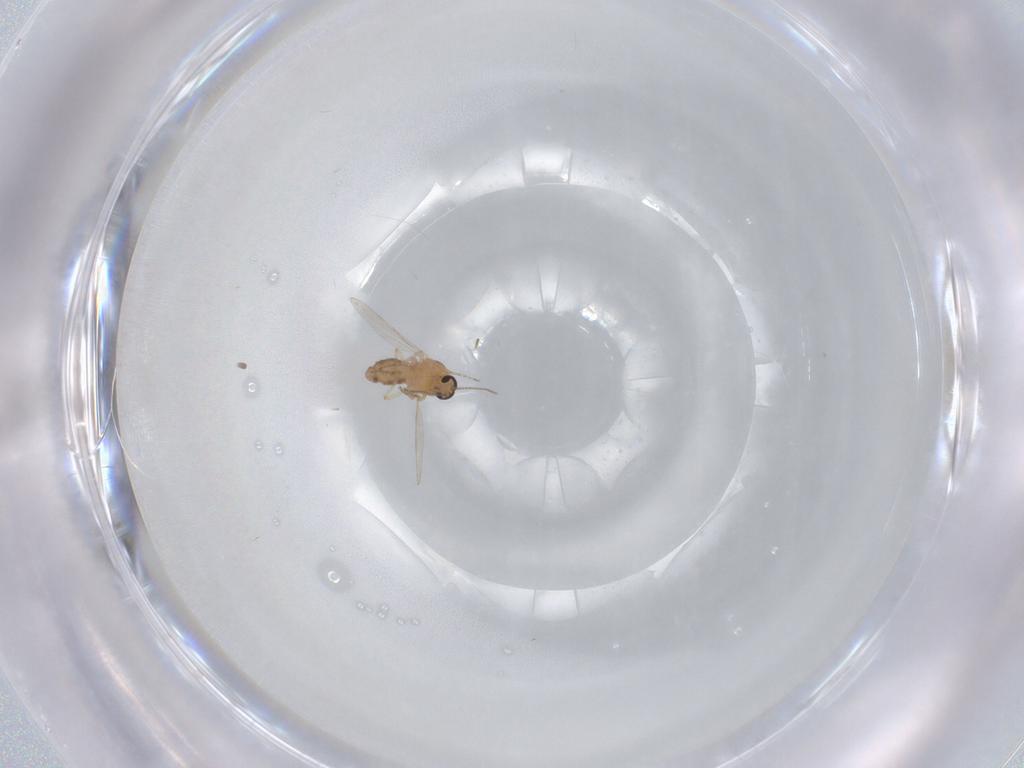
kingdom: Animalia
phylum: Arthropoda
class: Insecta
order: Diptera
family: Ceratopogonidae
